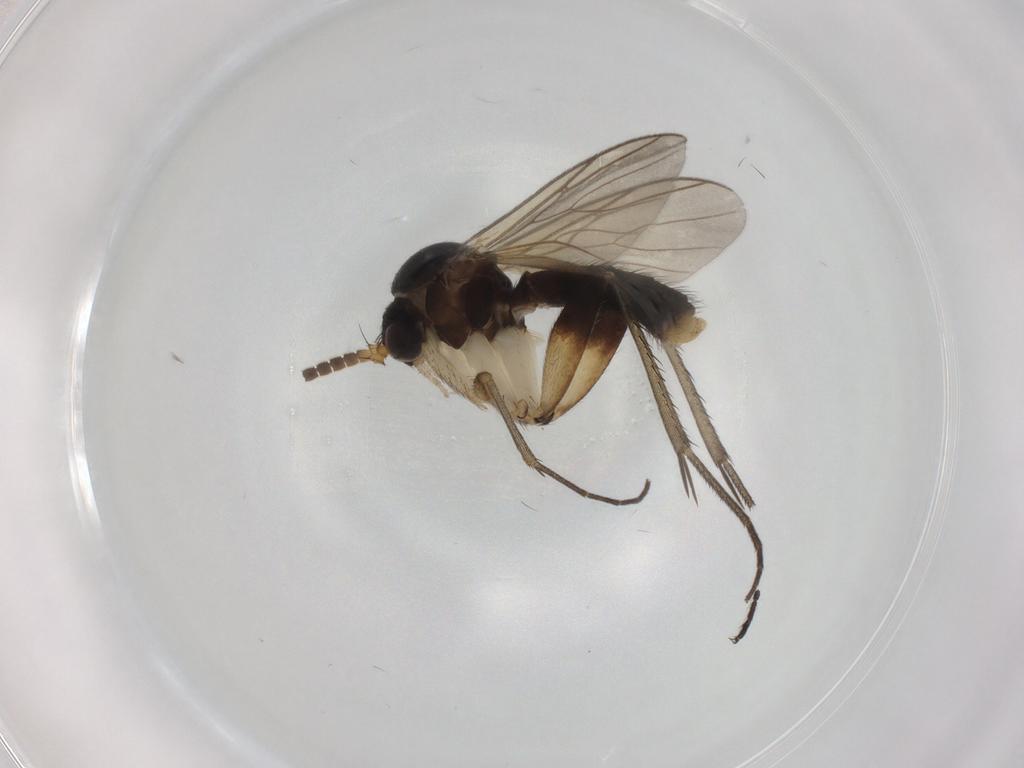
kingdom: Animalia
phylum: Arthropoda
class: Insecta
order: Diptera
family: Mycetophilidae
